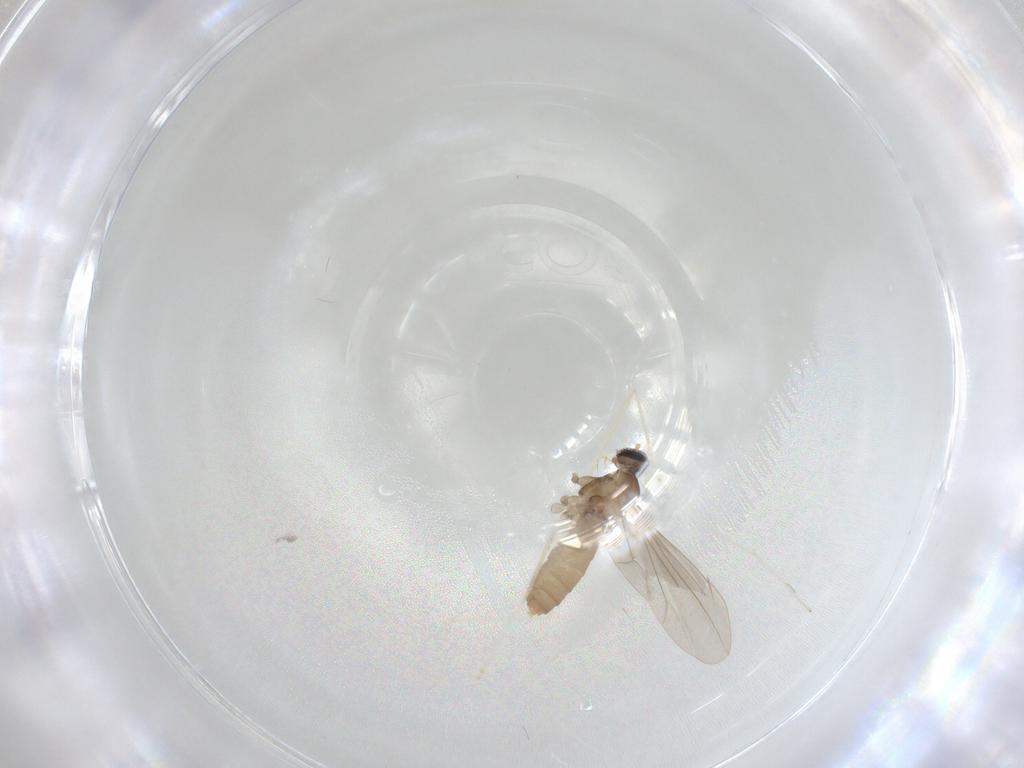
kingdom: Animalia
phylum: Arthropoda
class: Insecta
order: Diptera
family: Cecidomyiidae
